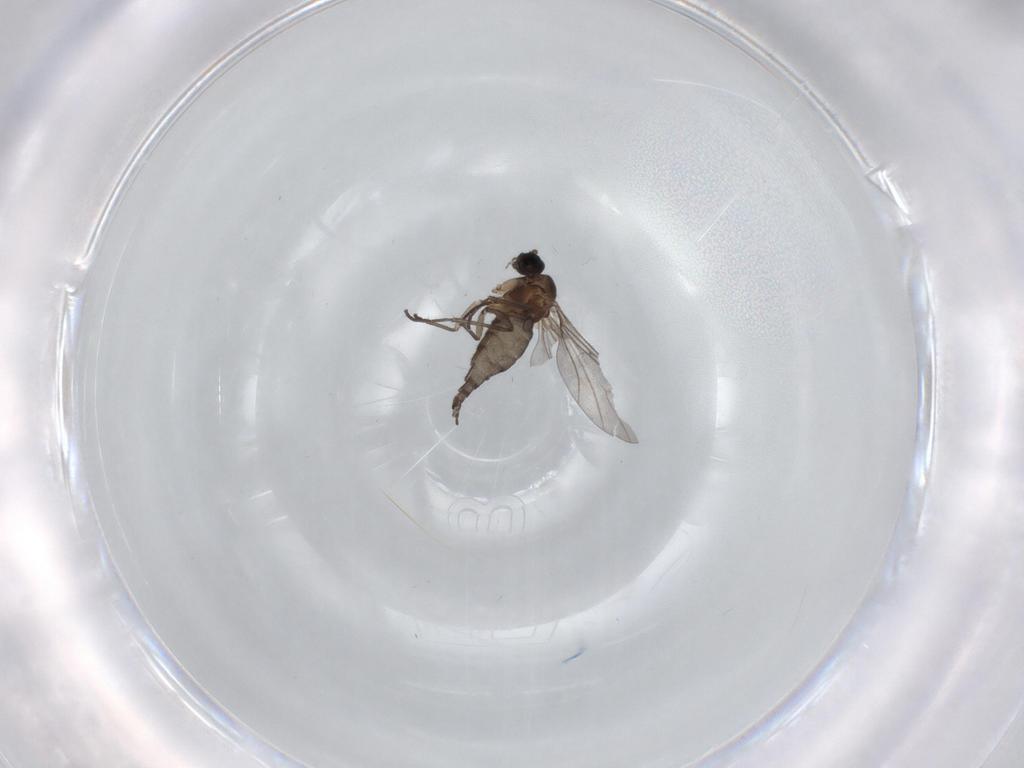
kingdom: Animalia
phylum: Arthropoda
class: Insecta
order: Diptera
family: Sciaridae
